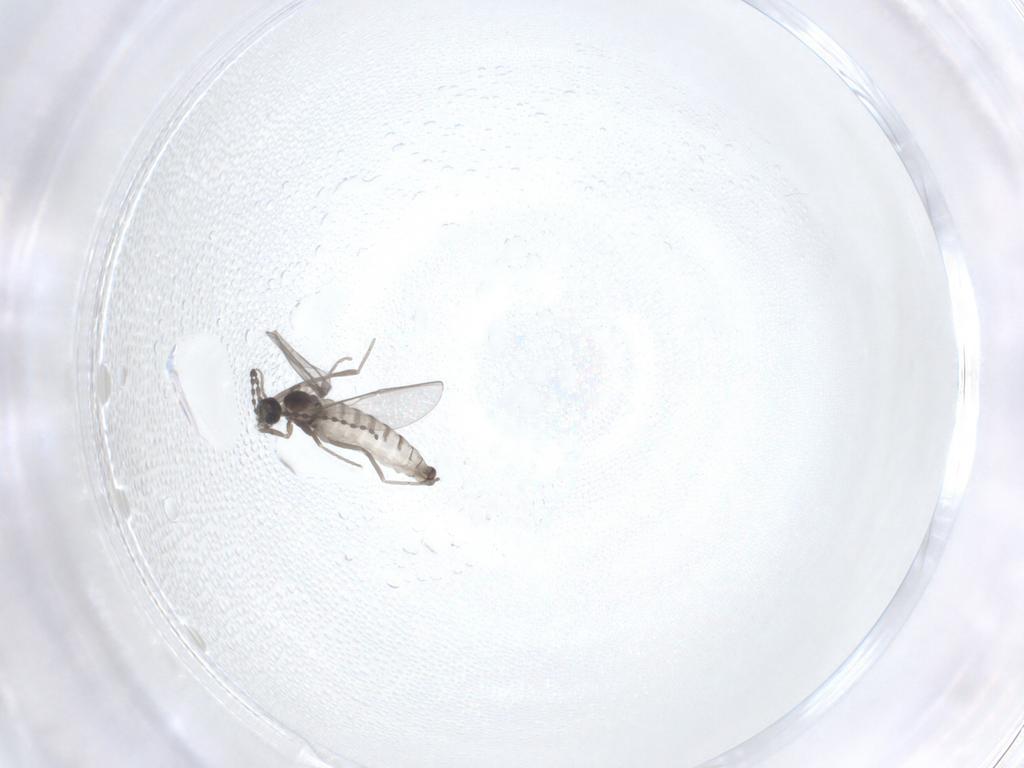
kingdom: Animalia
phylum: Arthropoda
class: Insecta
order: Diptera
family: Cecidomyiidae
